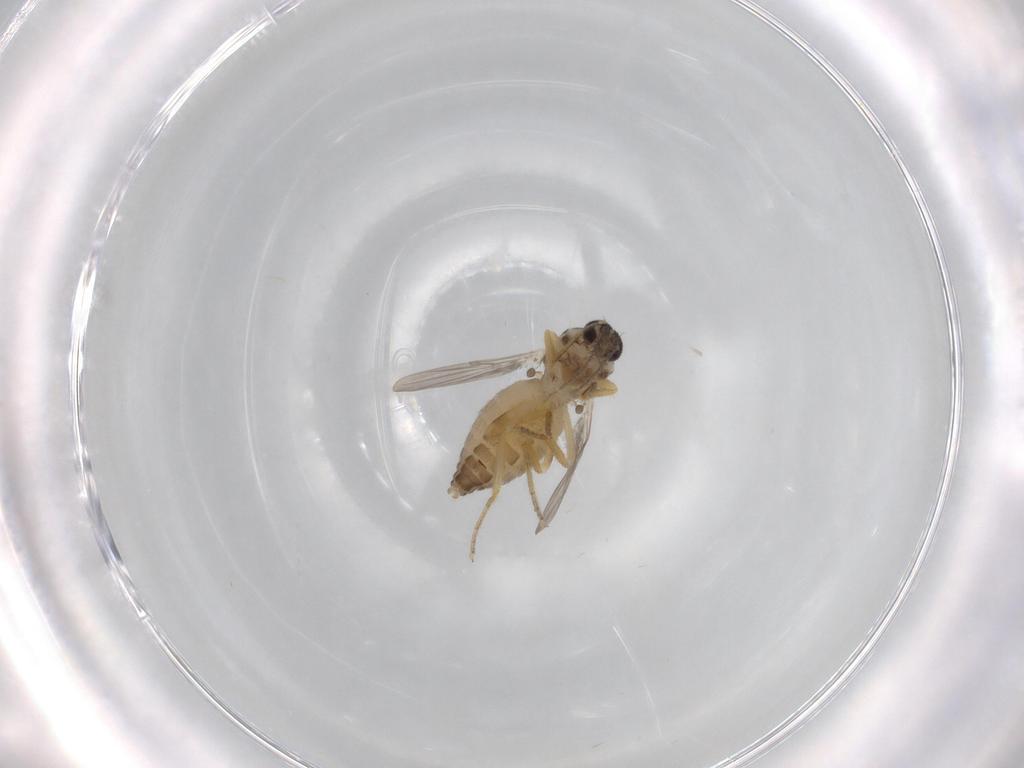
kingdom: Animalia
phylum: Arthropoda
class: Insecta
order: Diptera
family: Ceratopogonidae
